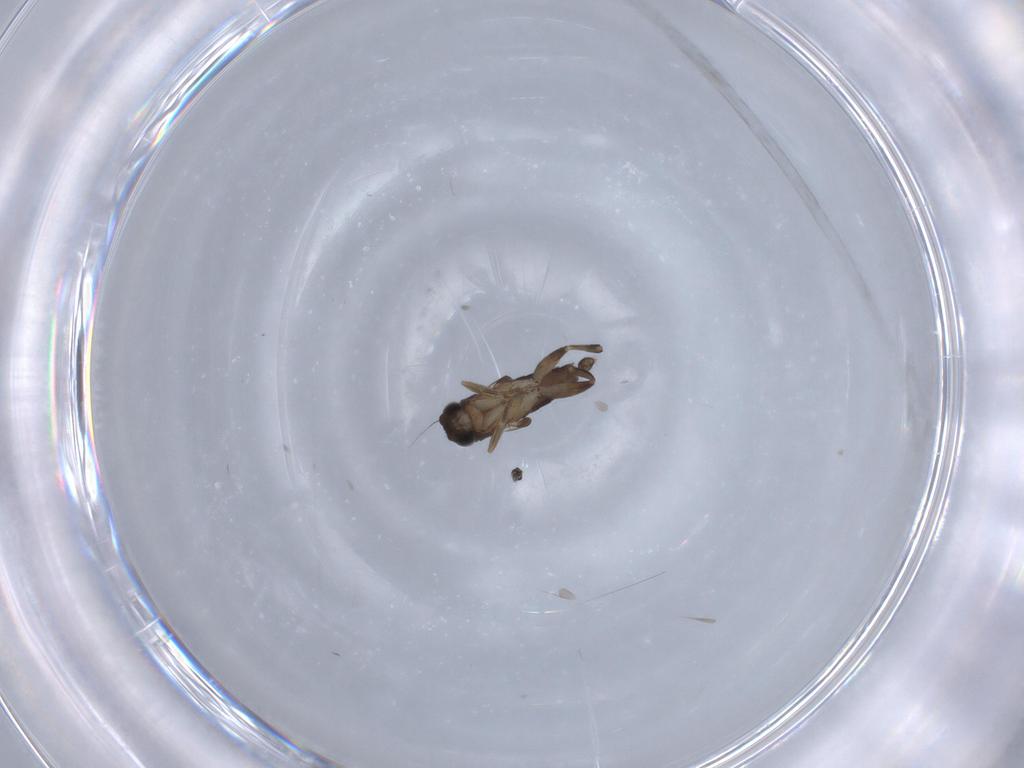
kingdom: Animalia
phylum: Arthropoda
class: Insecta
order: Diptera
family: Phoridae
